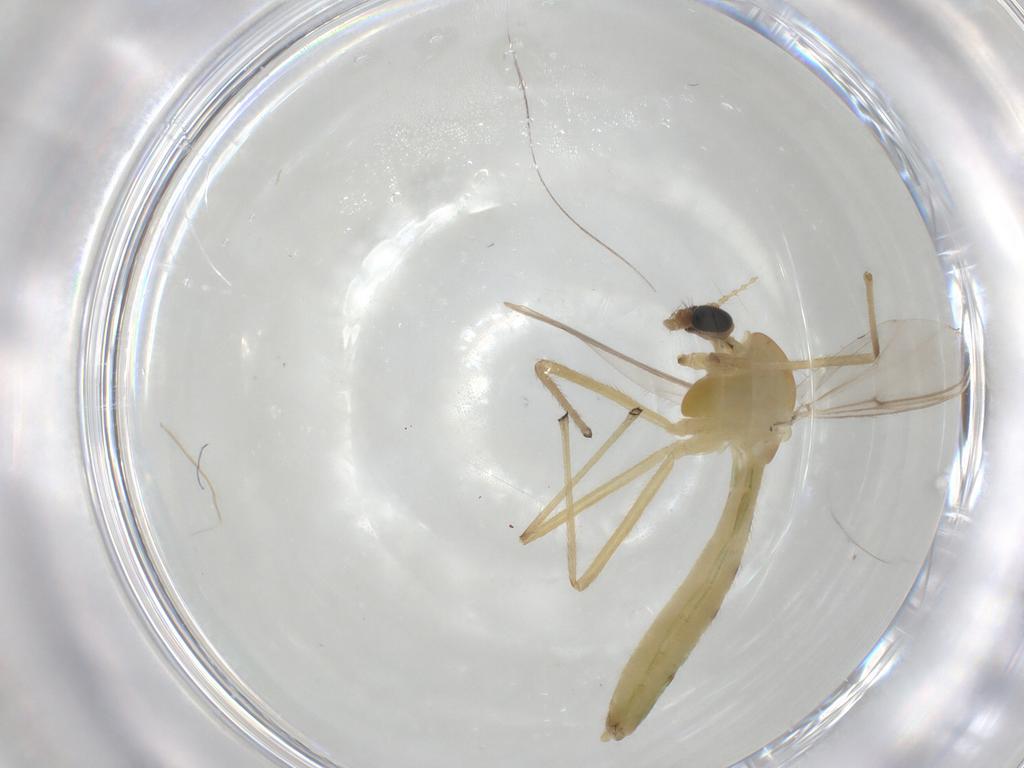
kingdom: Animalia
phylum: Arthropoda
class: Insecta
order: Diptera
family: Chironomidae
